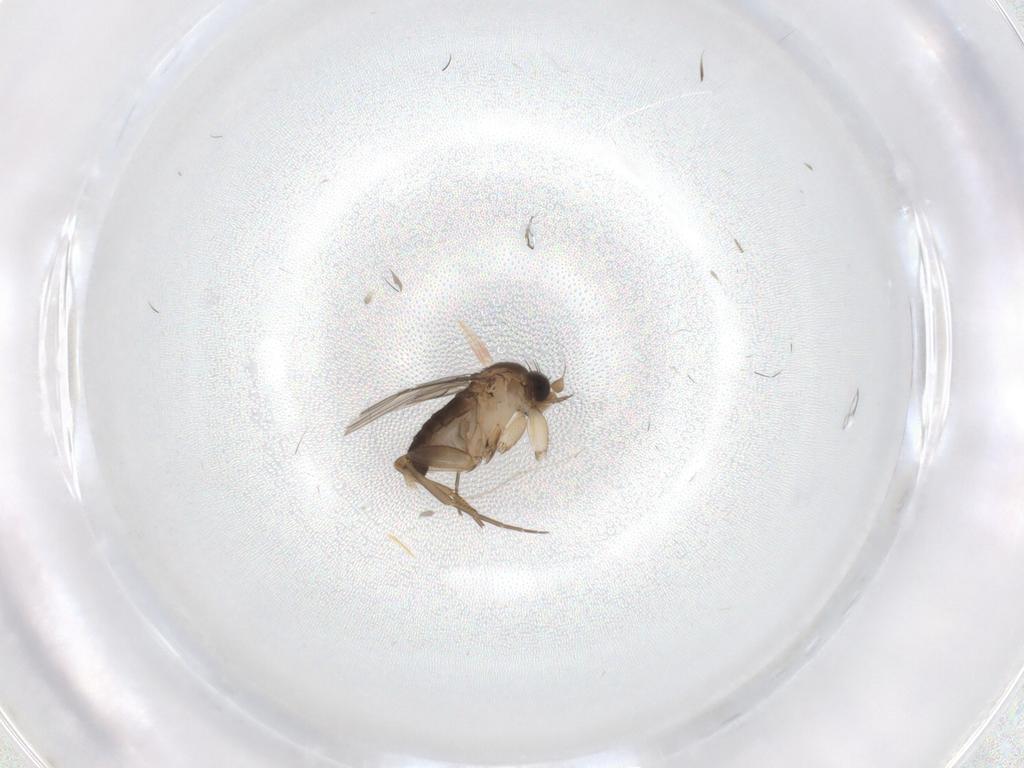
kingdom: Animalia
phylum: Arthropoda
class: Insecta
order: Diptera
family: Phoridae
